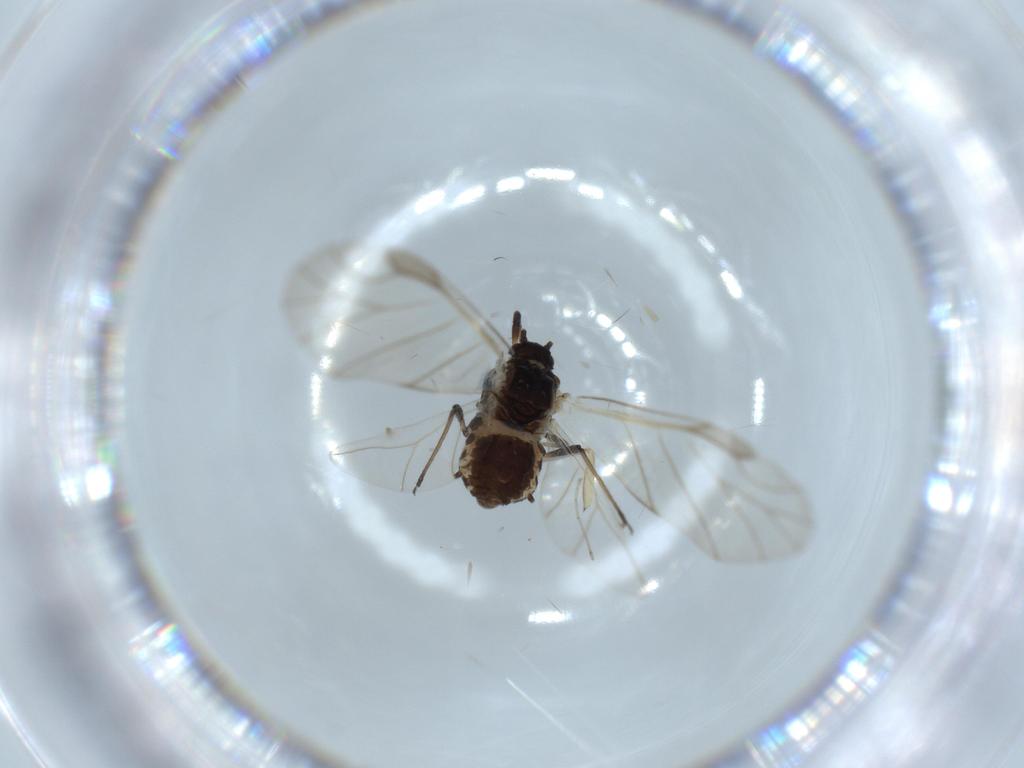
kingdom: Animalia
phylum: Arthropoda
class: Insecta
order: Hemiptera
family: Aphididae
